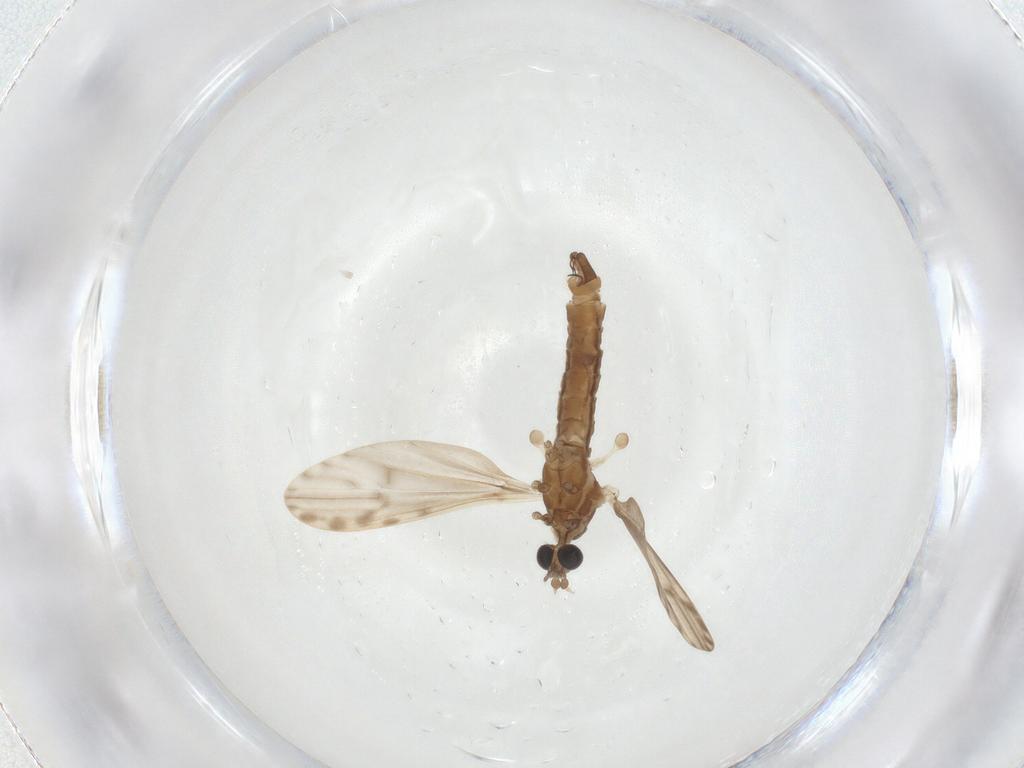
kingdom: Animalia
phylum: Arthropoda
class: Insecta
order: Diptera
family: Limoniidae
